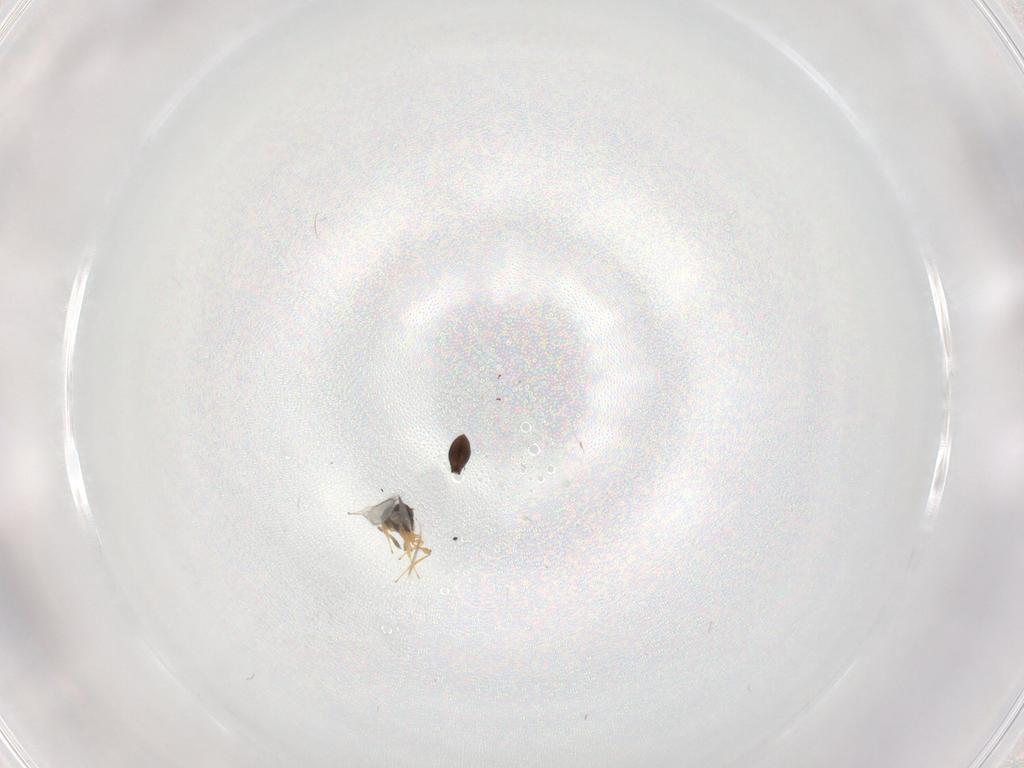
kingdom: Animalia
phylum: Arthropoda
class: Insecta
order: Hymenoptera
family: Platygastridae
